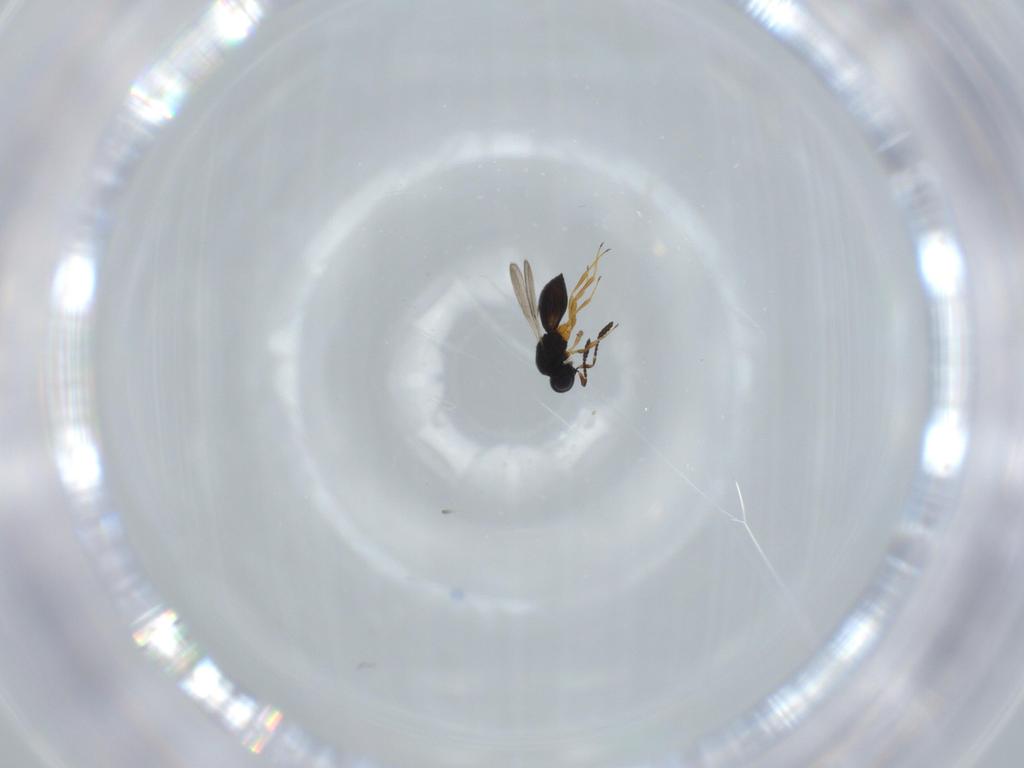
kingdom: Animalia
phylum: Arthropoda
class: Insecta
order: Hymenoptera
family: Scelionidae
